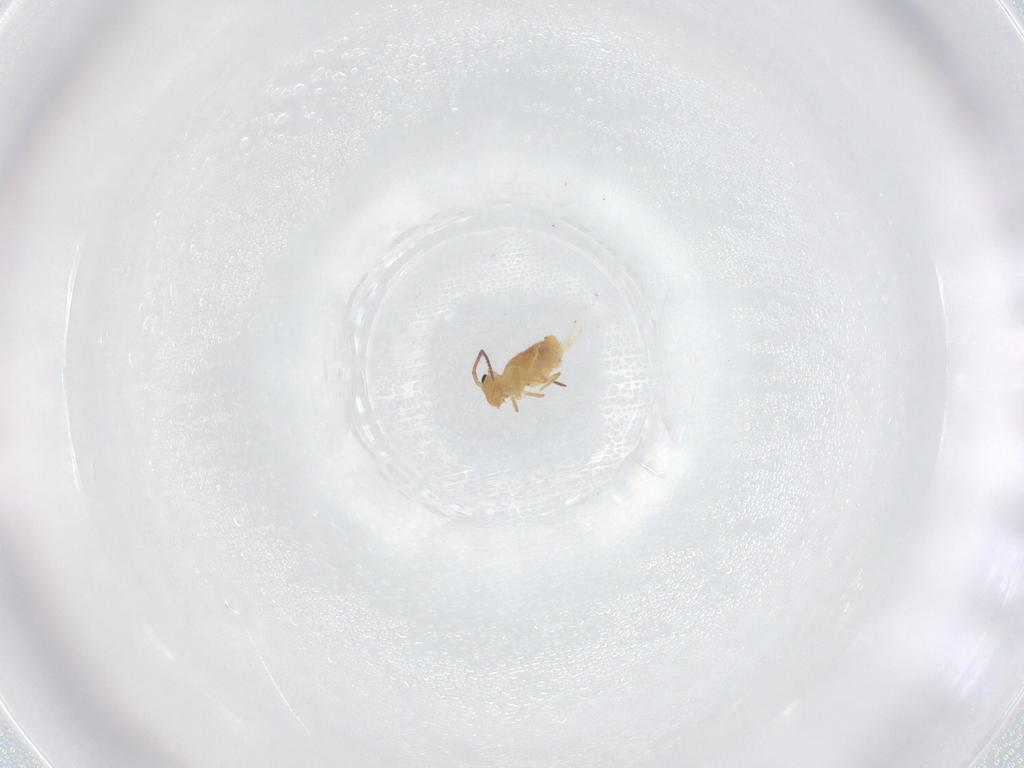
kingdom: Animalia
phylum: Arthropoda
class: Collembola
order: Symphypleona
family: Bourletiellidae
